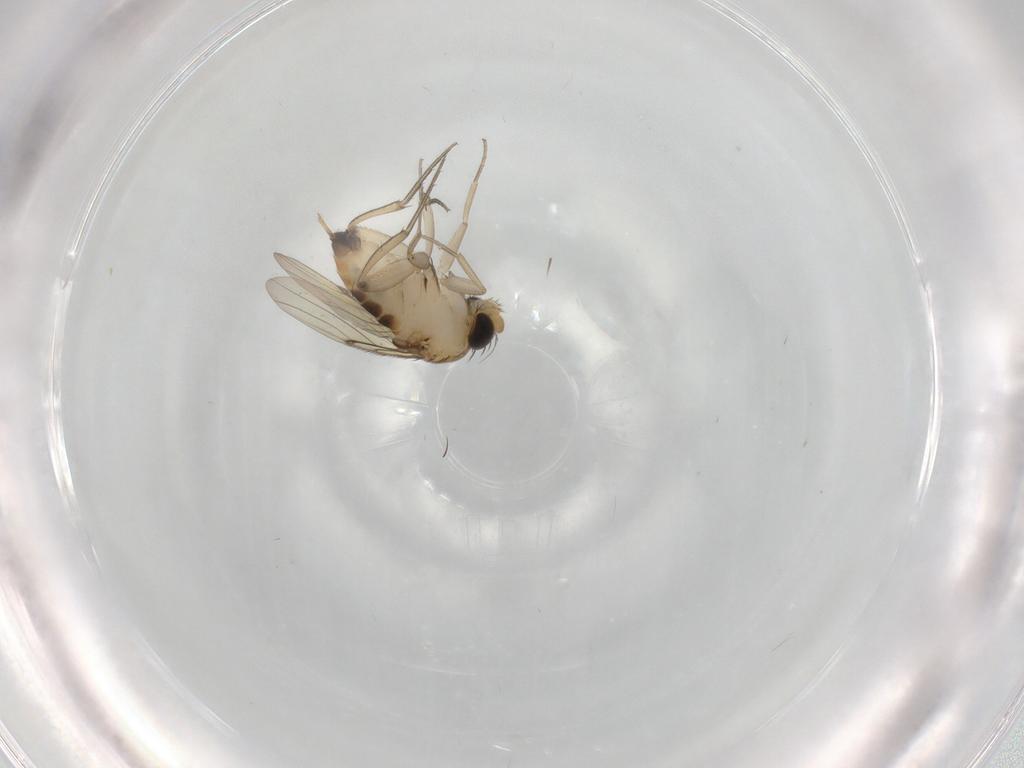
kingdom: Animalia
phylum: Arthropoda
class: Insecta
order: Diptera
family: Phoridae
